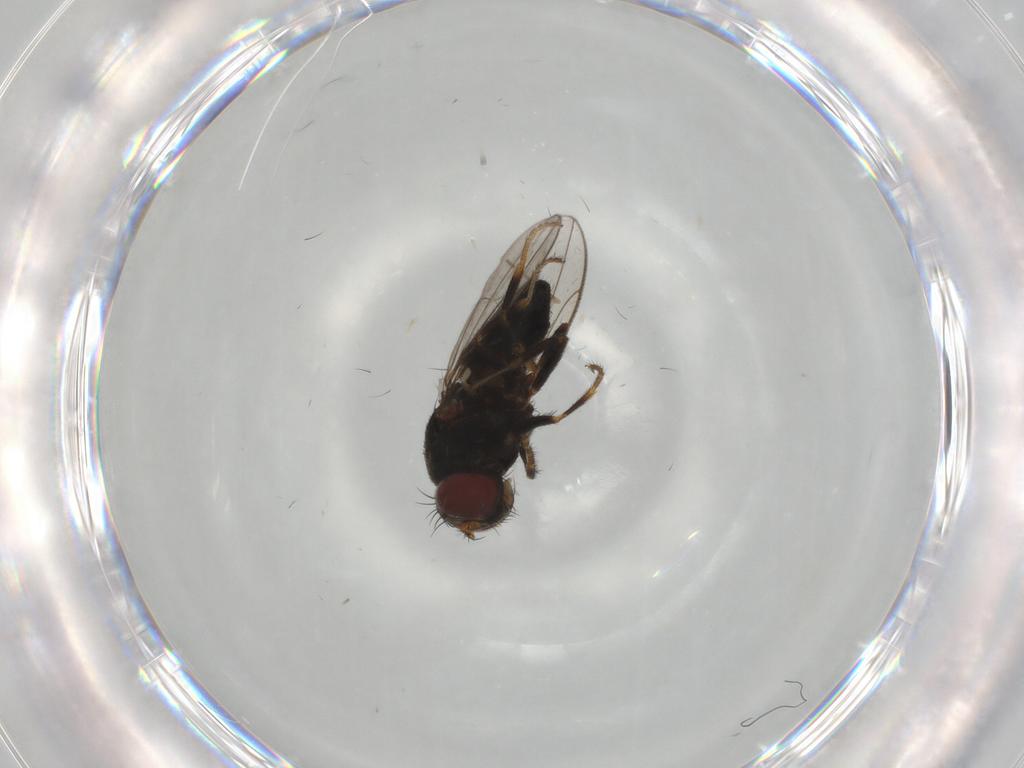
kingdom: Animalia
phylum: Arthropoda
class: Insecta
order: Diptera
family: Ephydridae
